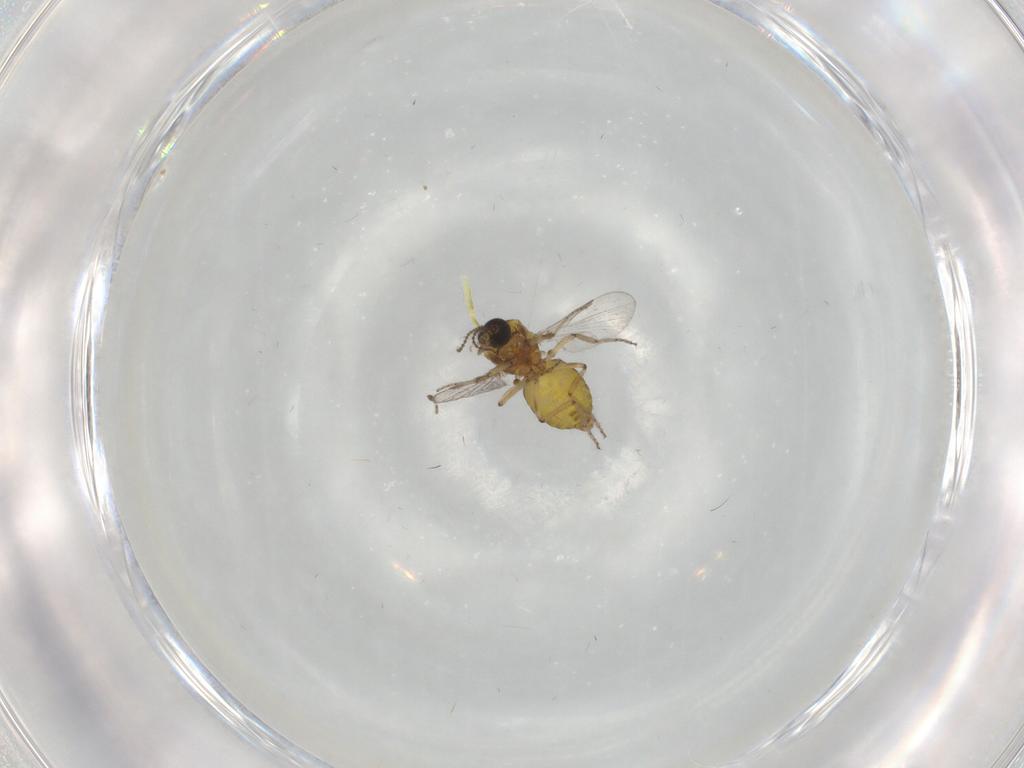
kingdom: Animalia
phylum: Arthropoda
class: Insecta
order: Diptera
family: Ceratopogonidae
